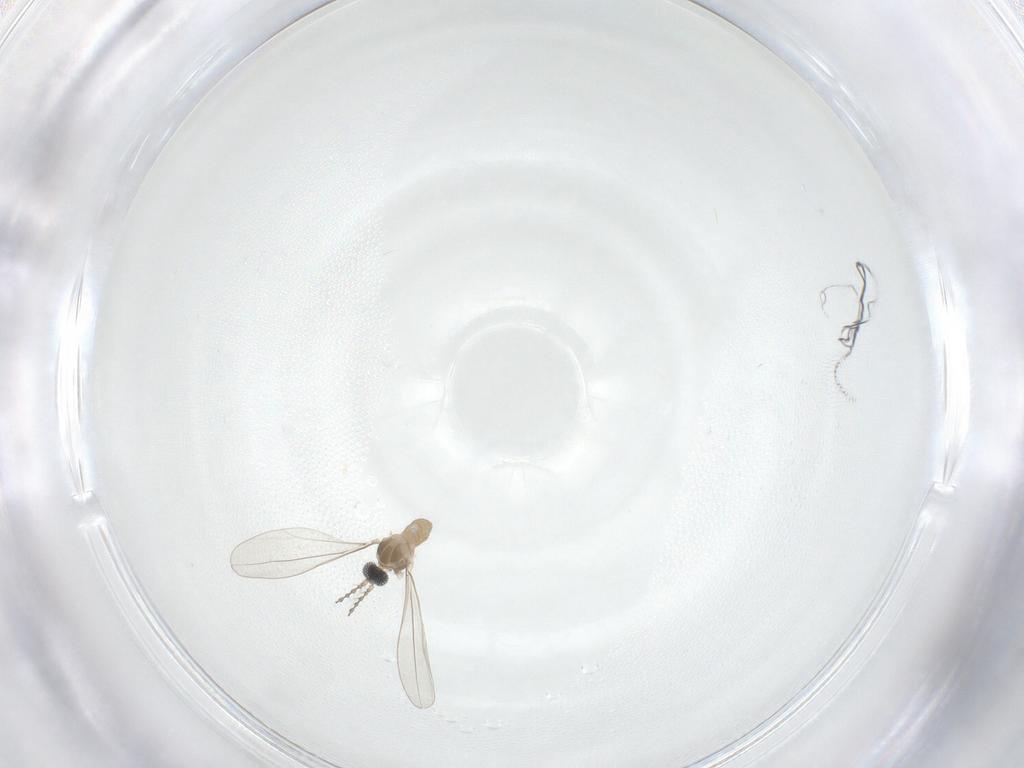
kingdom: Animalia
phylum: Arthropoda
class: Insecta
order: Diptera
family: Cecidomyiidae
